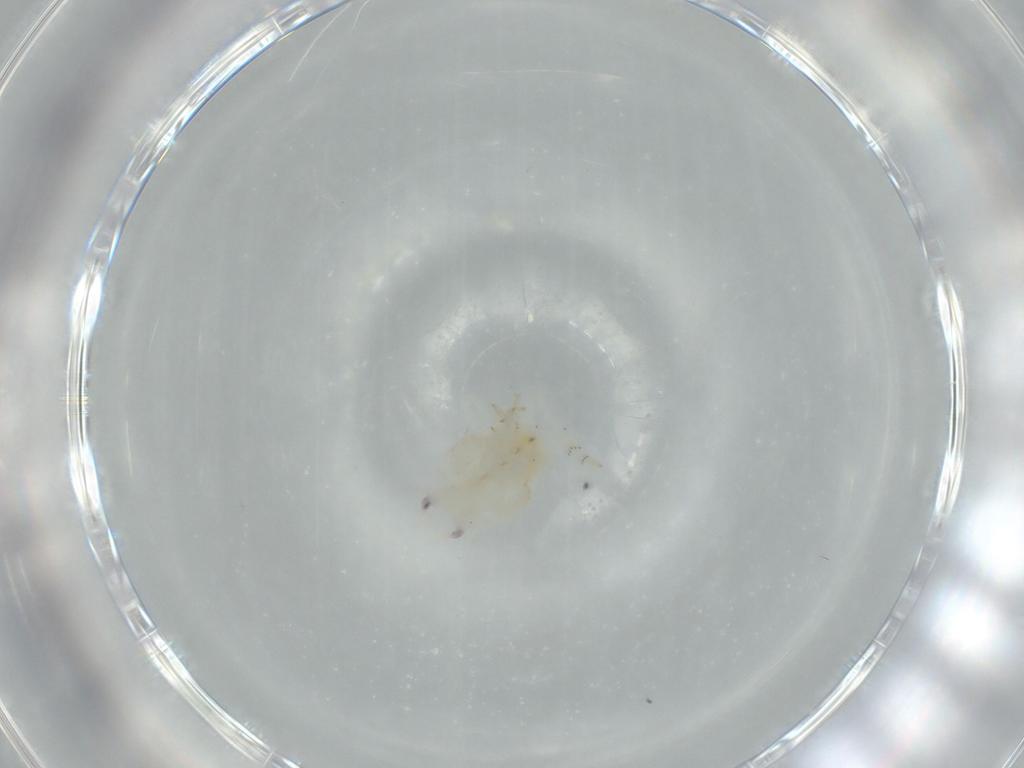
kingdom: Animalia
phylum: Arthropoda
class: Insecta
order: Hemiptera
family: Flatidae
